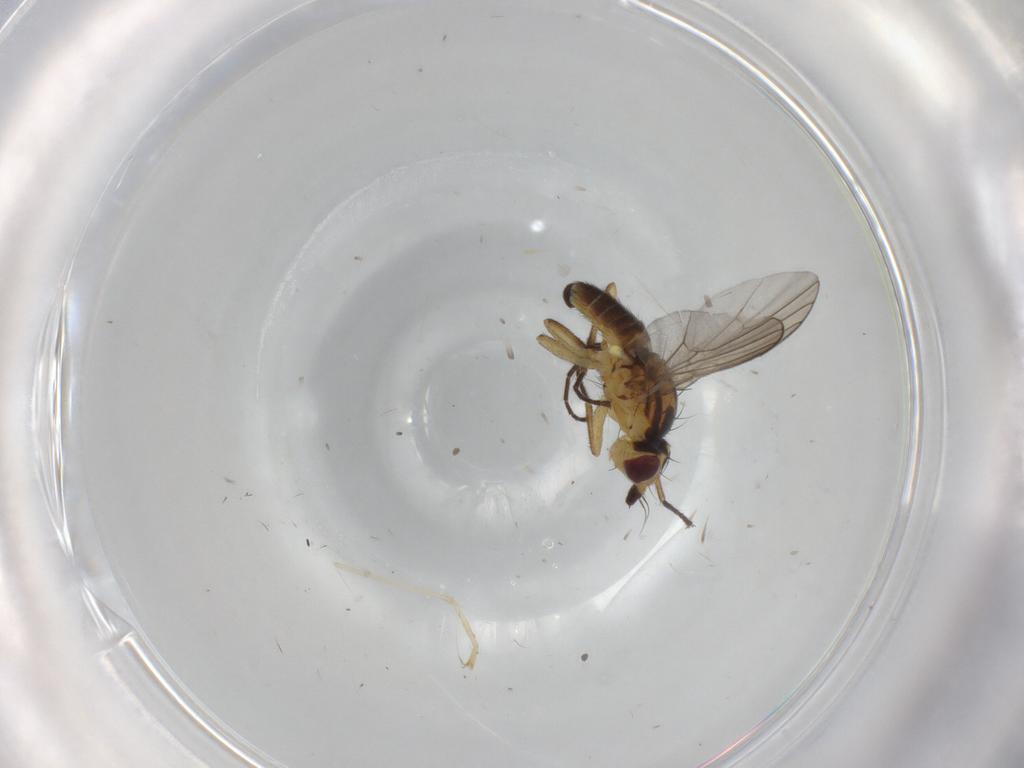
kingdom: Animalia
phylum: Arthropoda
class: Insecta
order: Diptera
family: Agromyzidae
